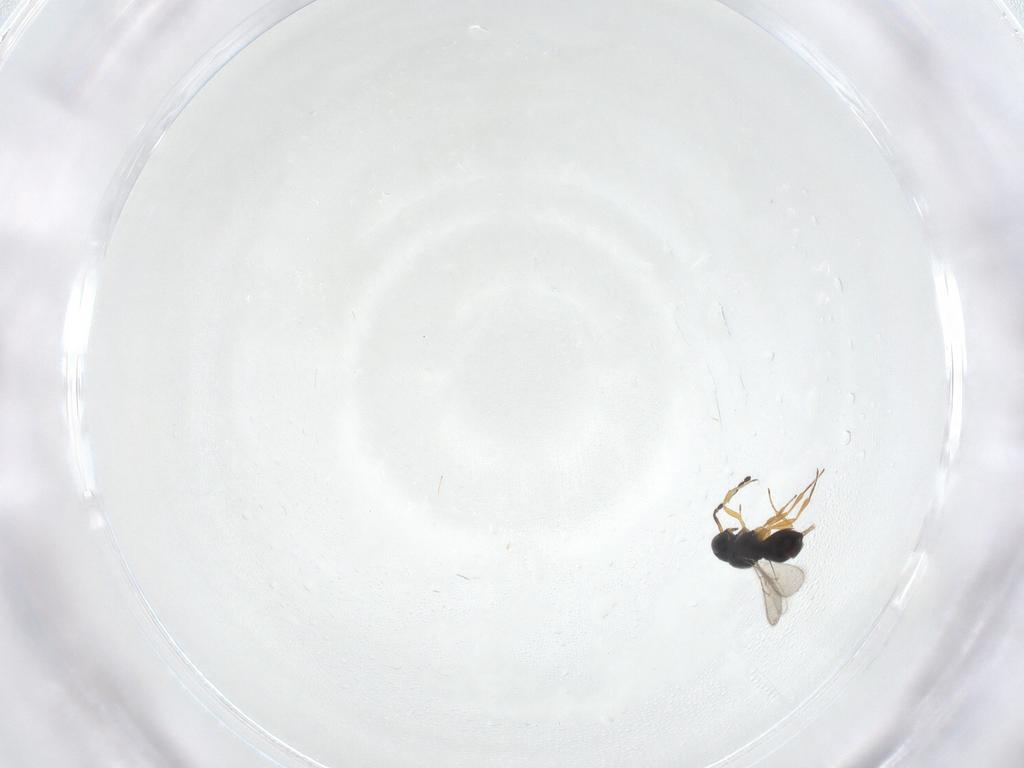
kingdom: Animalia
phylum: Arthropoda
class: Insecta
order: Hymenoptera
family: Scelionidae
